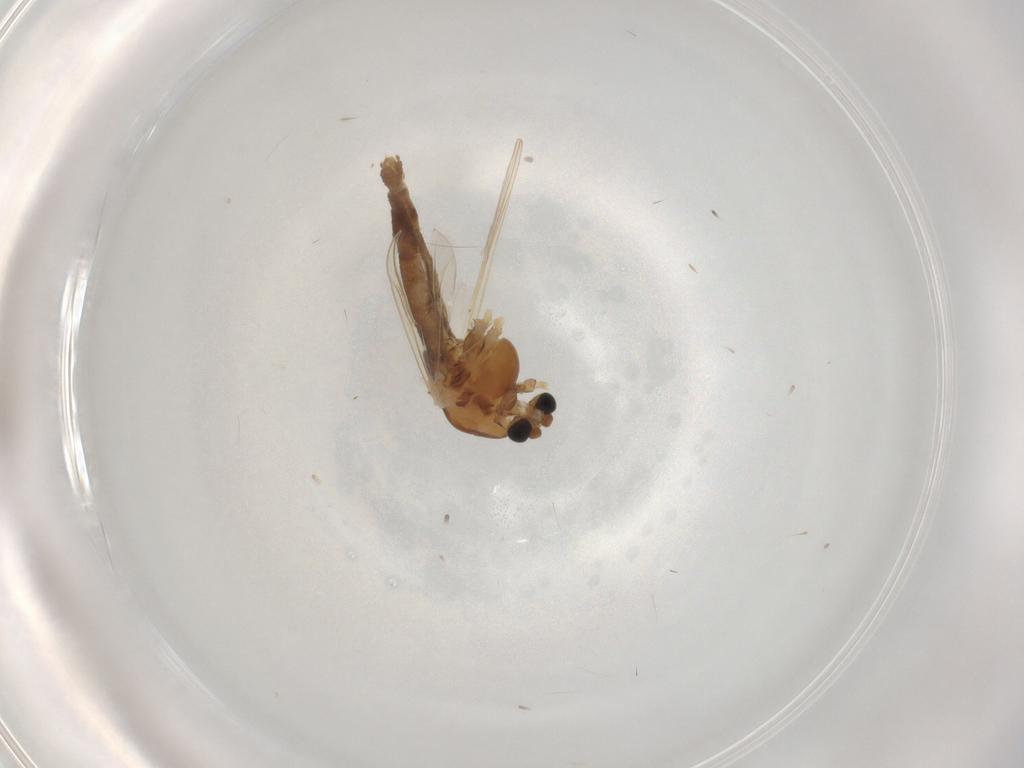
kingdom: Animalia
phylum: Arthropoda
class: Insecta
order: Diptera
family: Chironomidae
